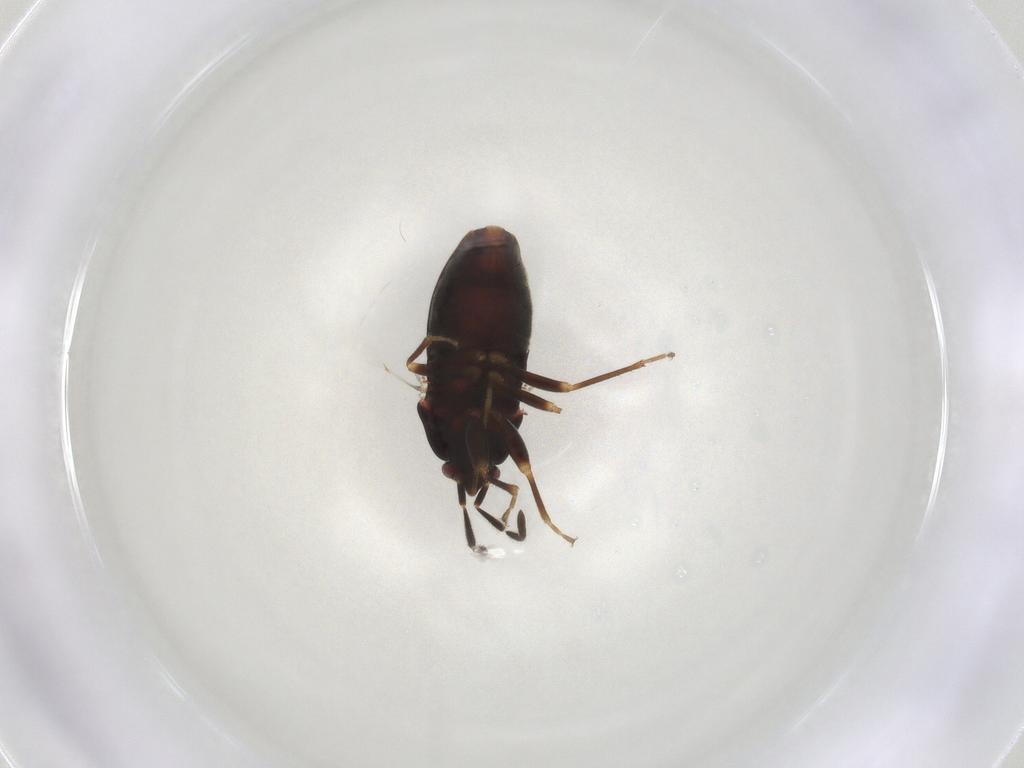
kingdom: Animalia
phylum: Arthropoda
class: Insecta
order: Hemiptera
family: Rhyparochromidae
